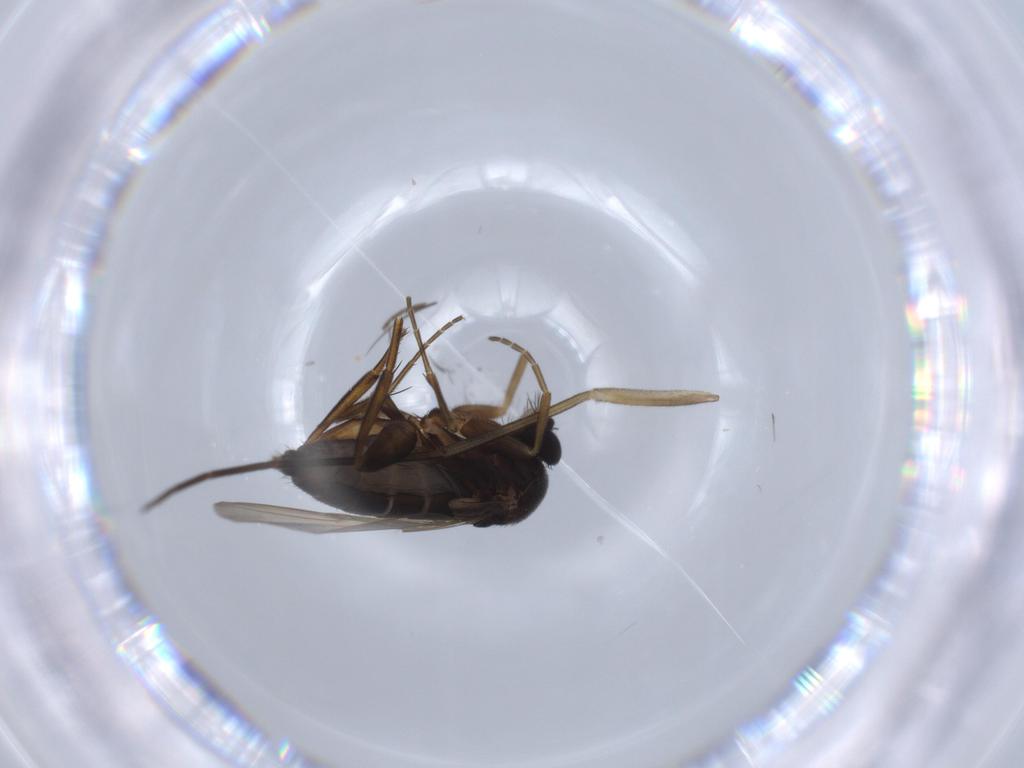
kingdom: Animalia
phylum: Arthropoda
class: Insecta
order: Diptera
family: Phoridae
